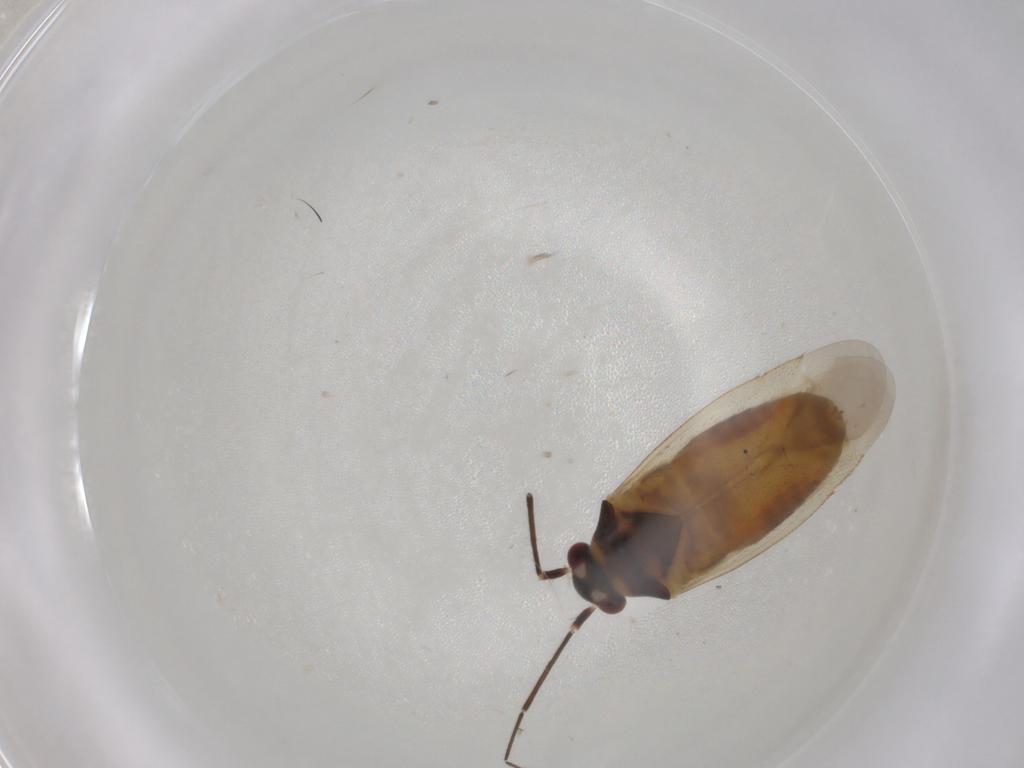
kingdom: Animalia
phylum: Arthropoda
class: Insecta
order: Hemiptera
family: Miridae
